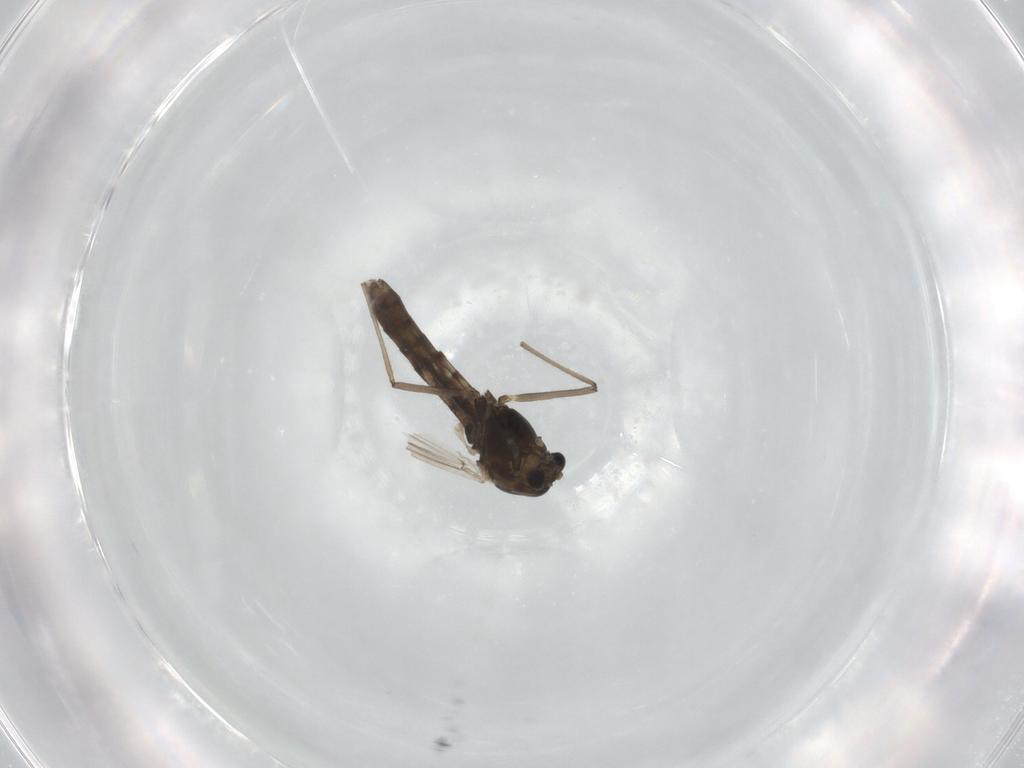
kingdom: Animalia
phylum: Arthropoda
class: Insecta
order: Diptera
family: Chironomidae
